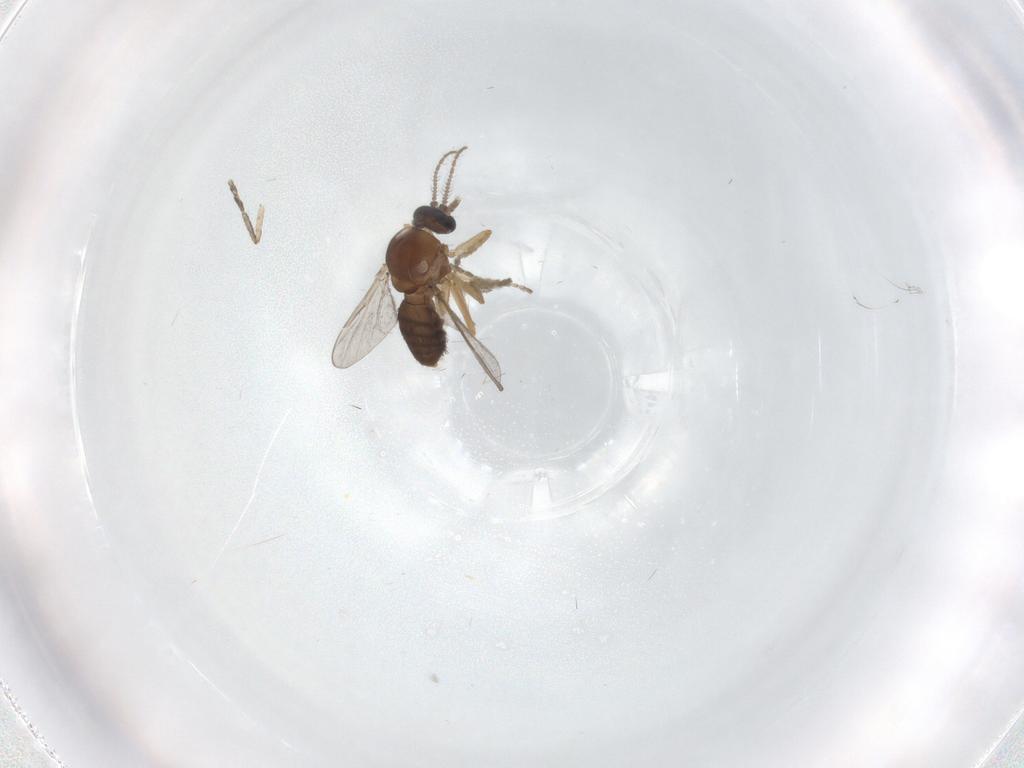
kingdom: Animalia
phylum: Arthropoda
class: Insecta
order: Diptera
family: Ceratopogonidae
